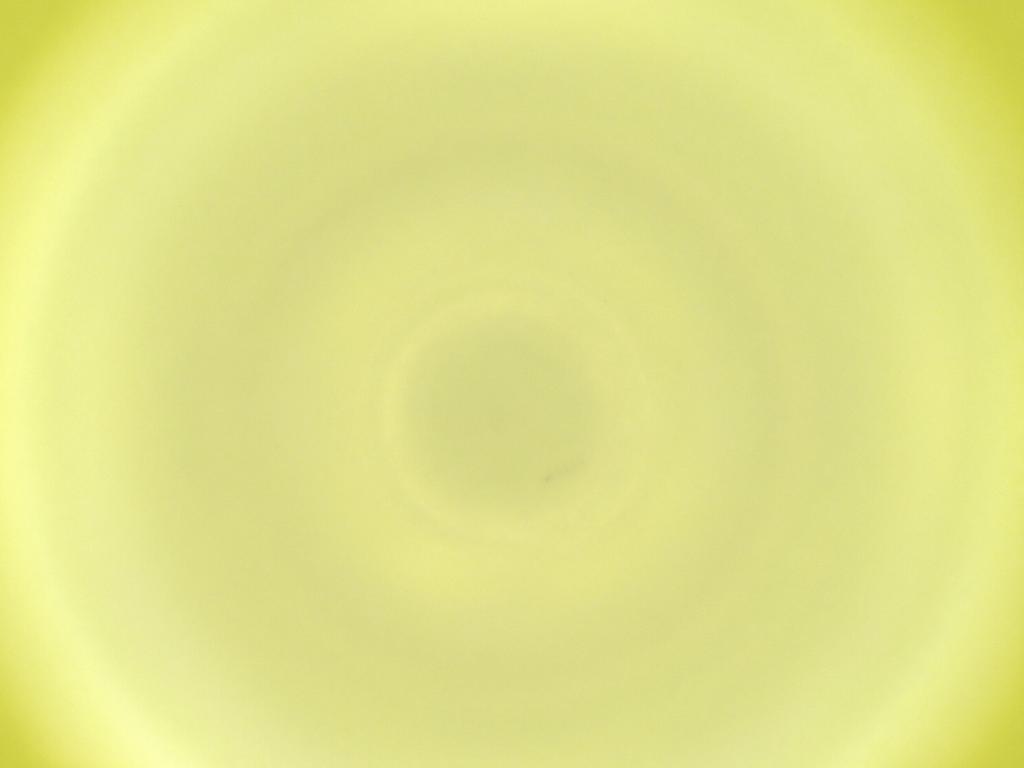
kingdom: Animalia
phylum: Arthropoda
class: Insecta
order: Diptera
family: Cecidomyiidae
